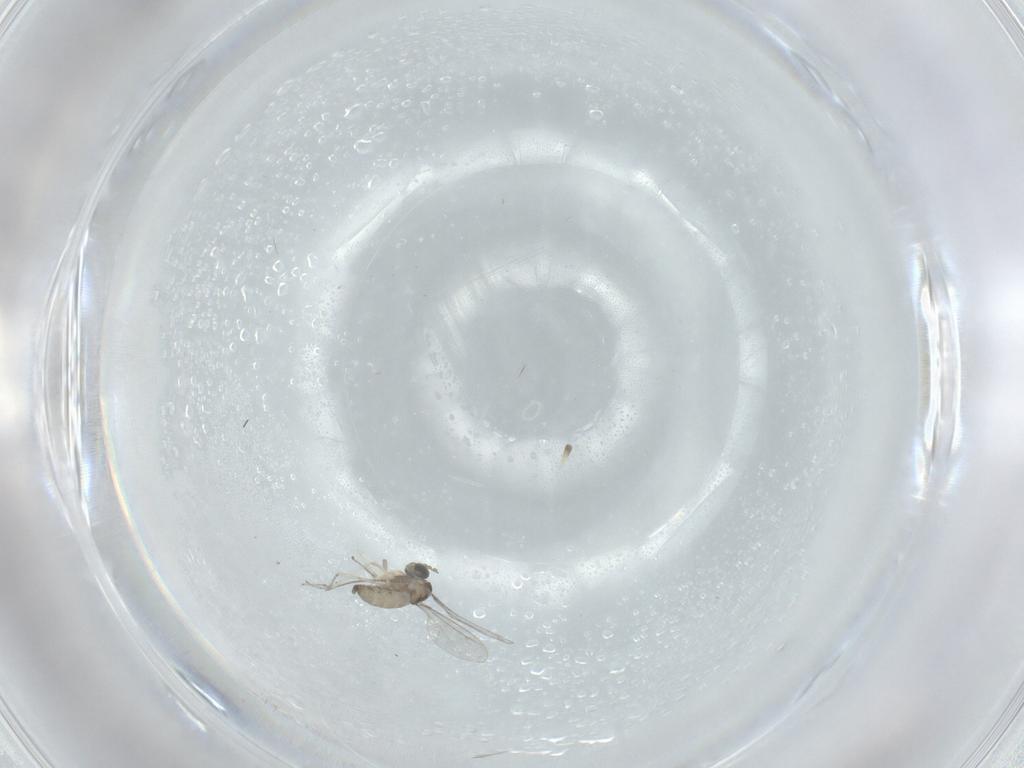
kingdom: Animalia
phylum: Arthropoda
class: Insecta
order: Diptera
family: Cecidomyiidae
